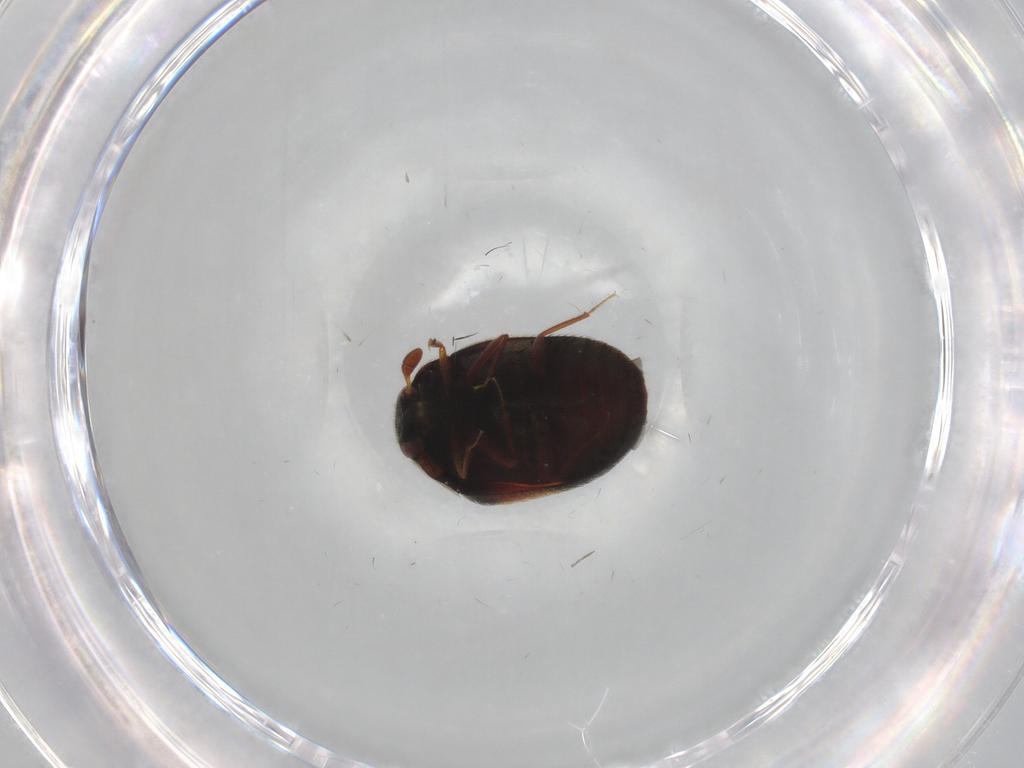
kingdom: Animalia
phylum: Arthropoda
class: Insecta
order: Coleoptera
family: Dermestidae
